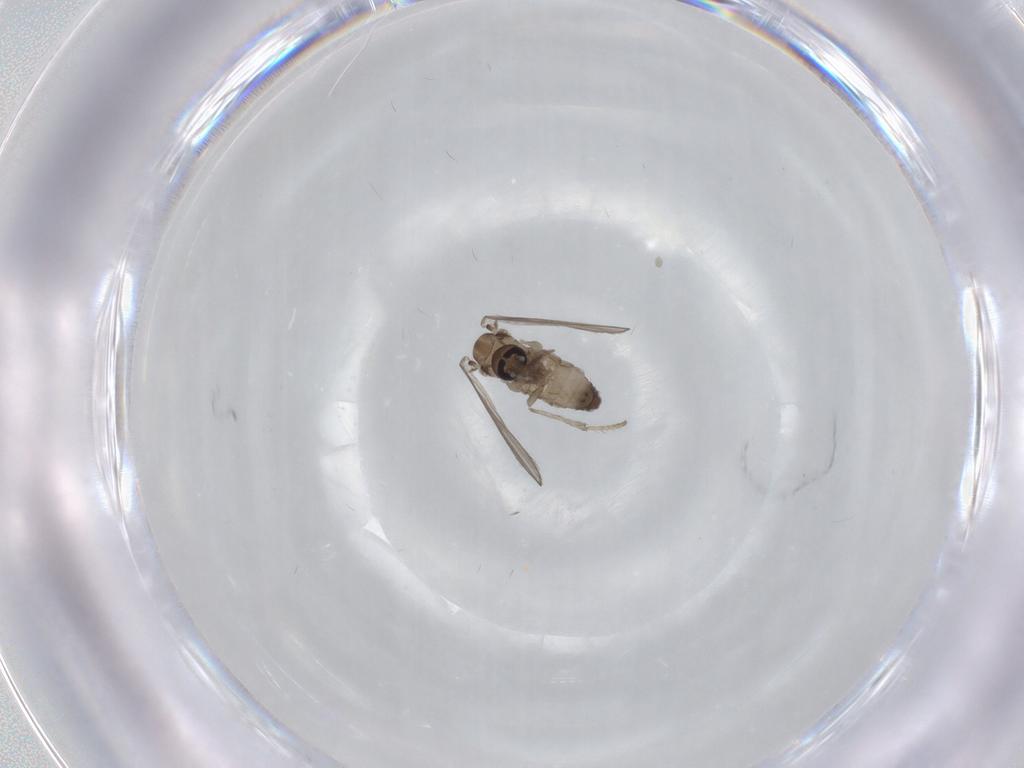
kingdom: Animalia
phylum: Arthropoda
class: Insecta
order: Diptera
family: Psychodidae
